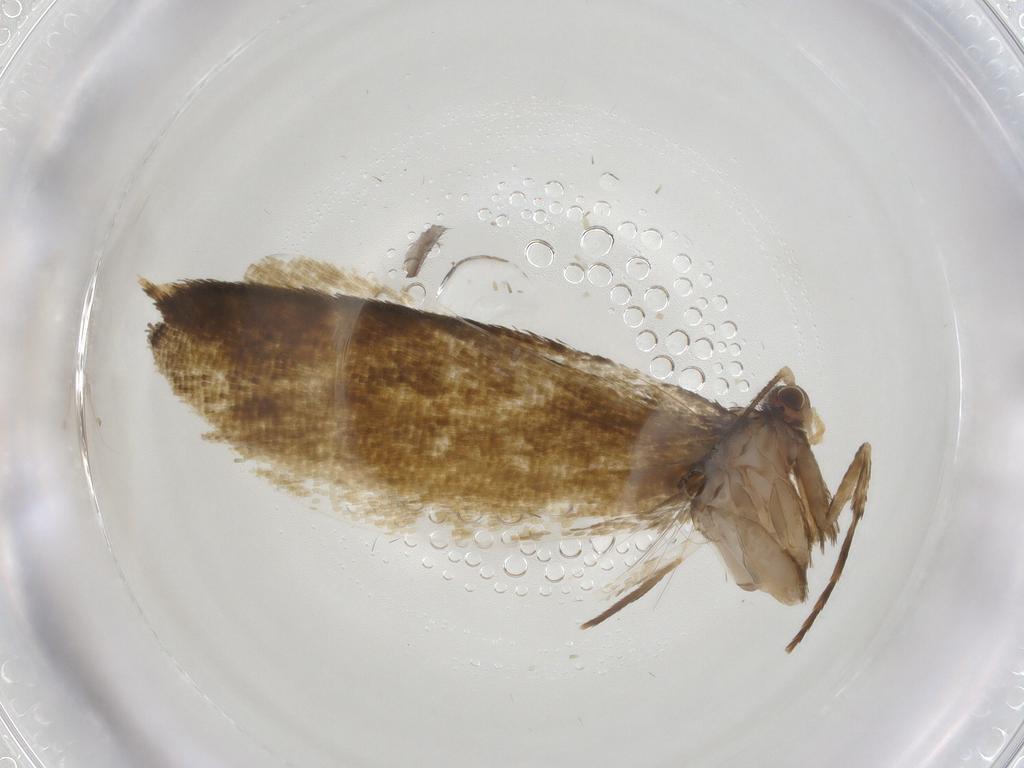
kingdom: Animalia
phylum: Arthropoda
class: Insecta
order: Lepidoptera
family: Tineidae
